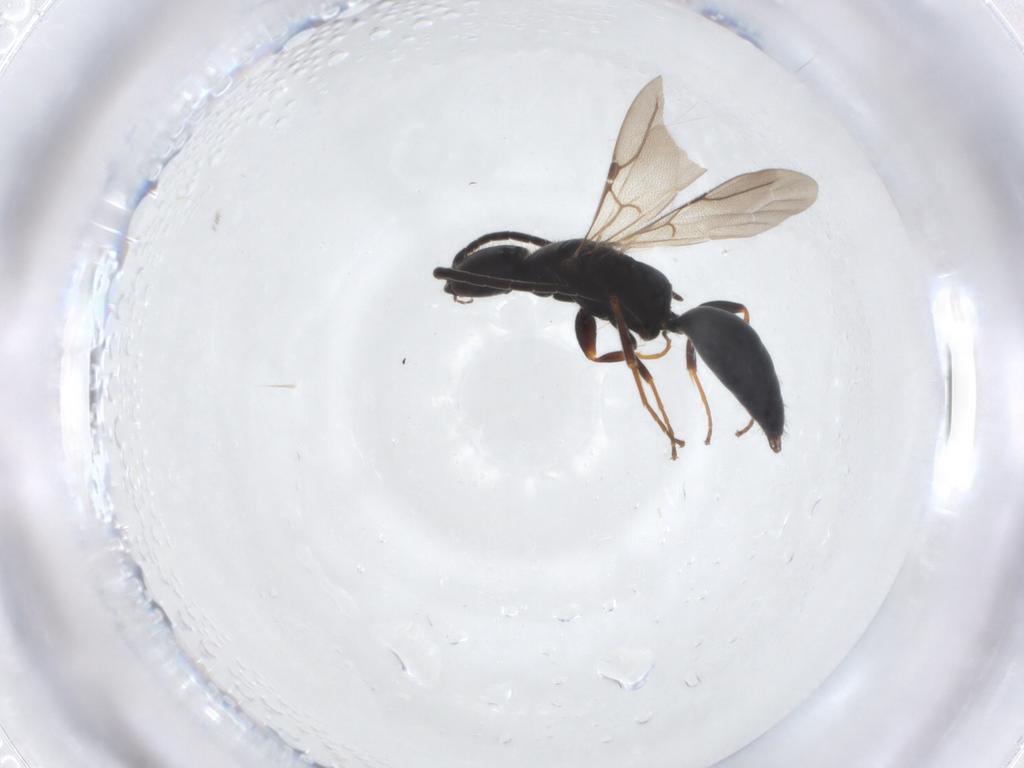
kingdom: Animalia
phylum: Arthropoda
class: Insecta
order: Hymenoptera
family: Bethylidae
